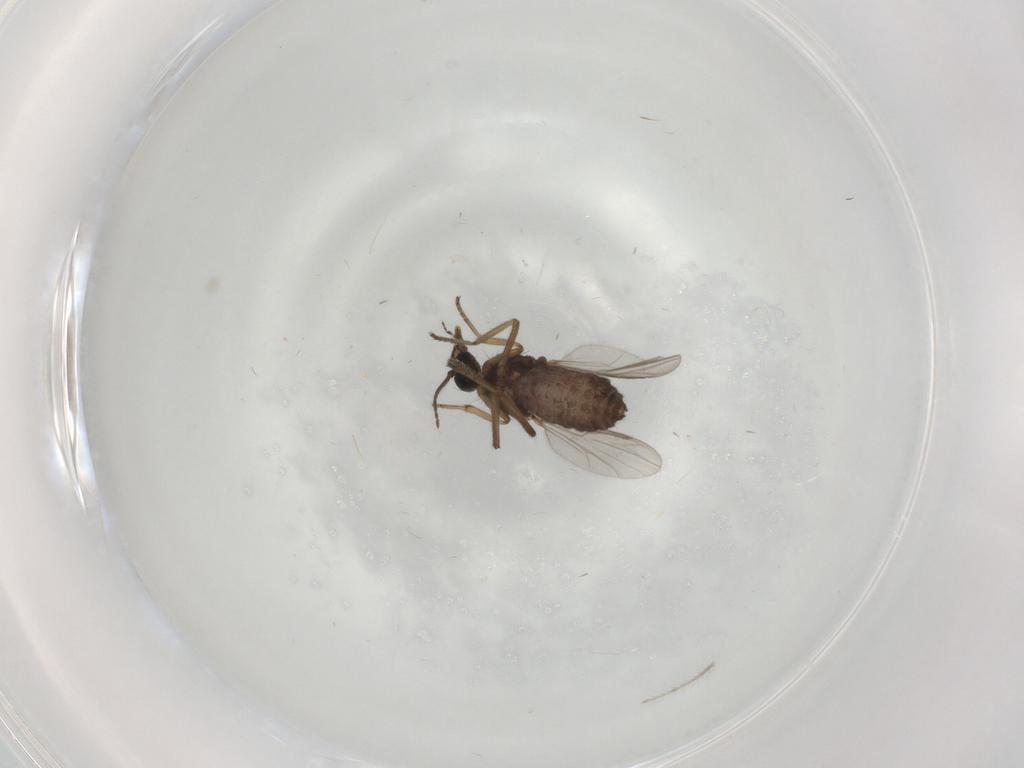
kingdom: Animalia
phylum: Arthropoda
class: Insecta
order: Diptera
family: Ceratopogonidae
